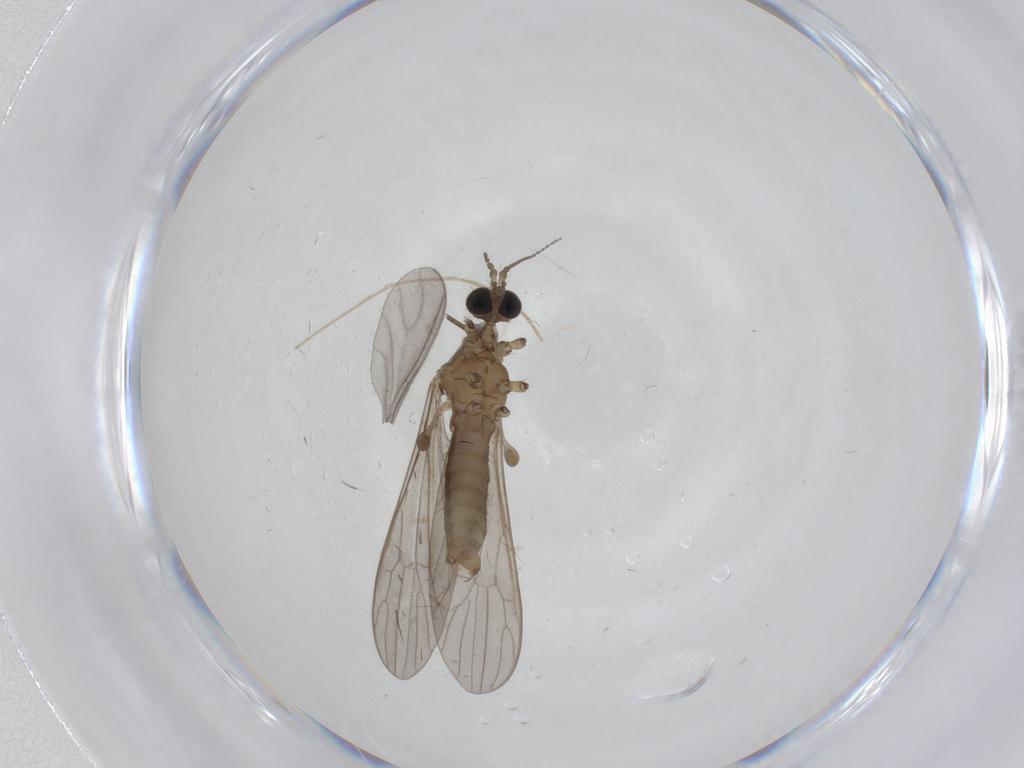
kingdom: Animalia
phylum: Arthropoda
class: Insecta
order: Diptera
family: Limoniidae
